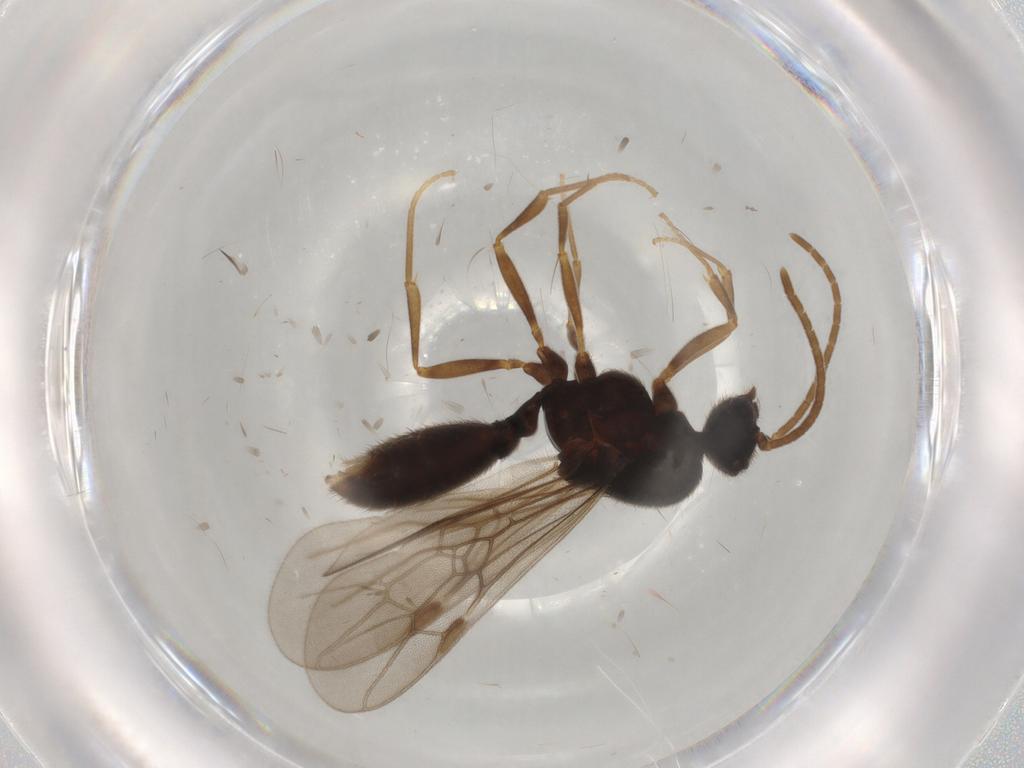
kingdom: Animalia
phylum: Arthropoda
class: Insecta
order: Hymenoptera
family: Formicidae
